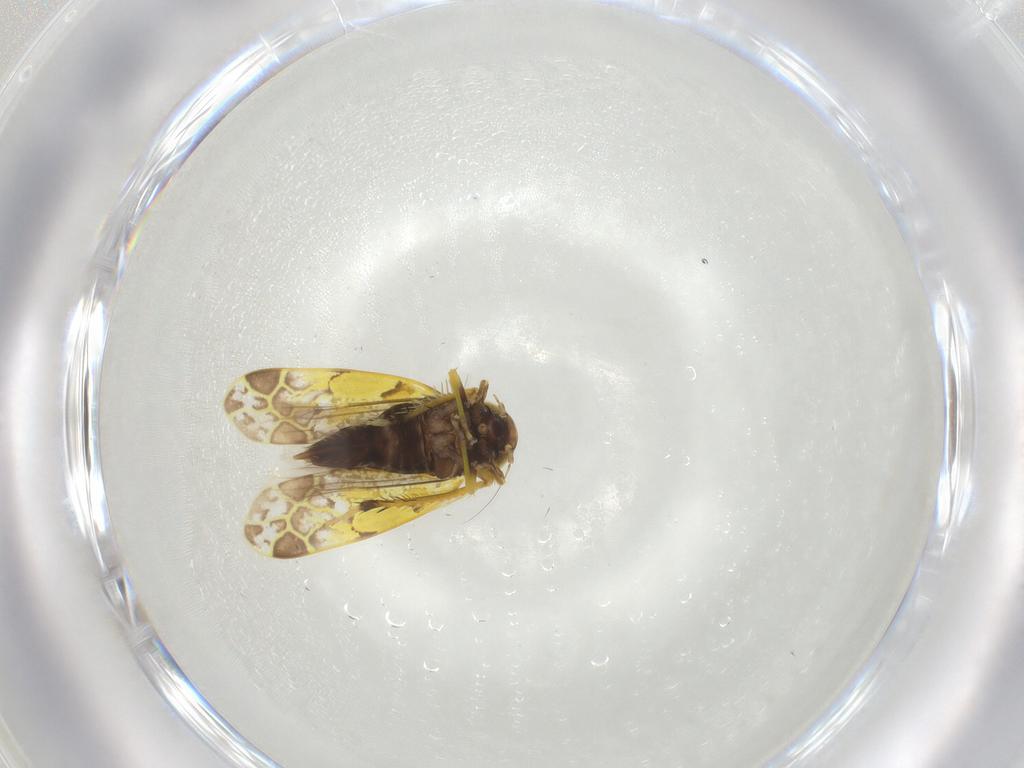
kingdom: Animalia
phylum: Arthropoda
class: Insecta
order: Hemiptera
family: Cicadellidae
